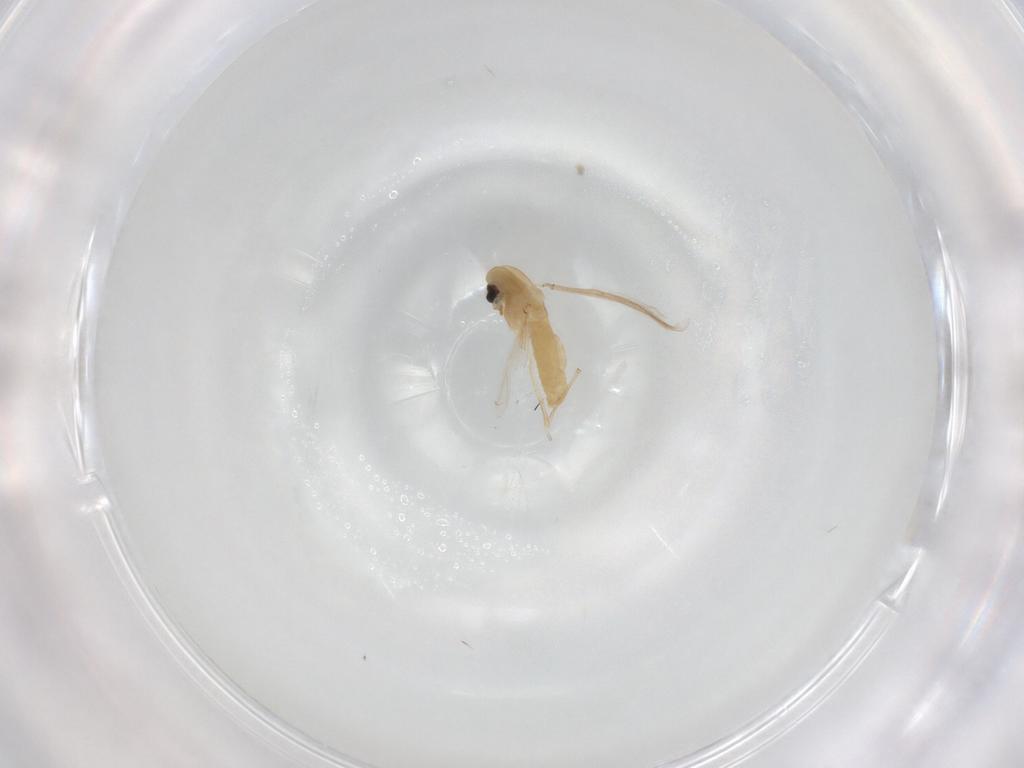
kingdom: Animalia
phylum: Arthropoda
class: Insecta
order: Diptera
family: Chironomidae
